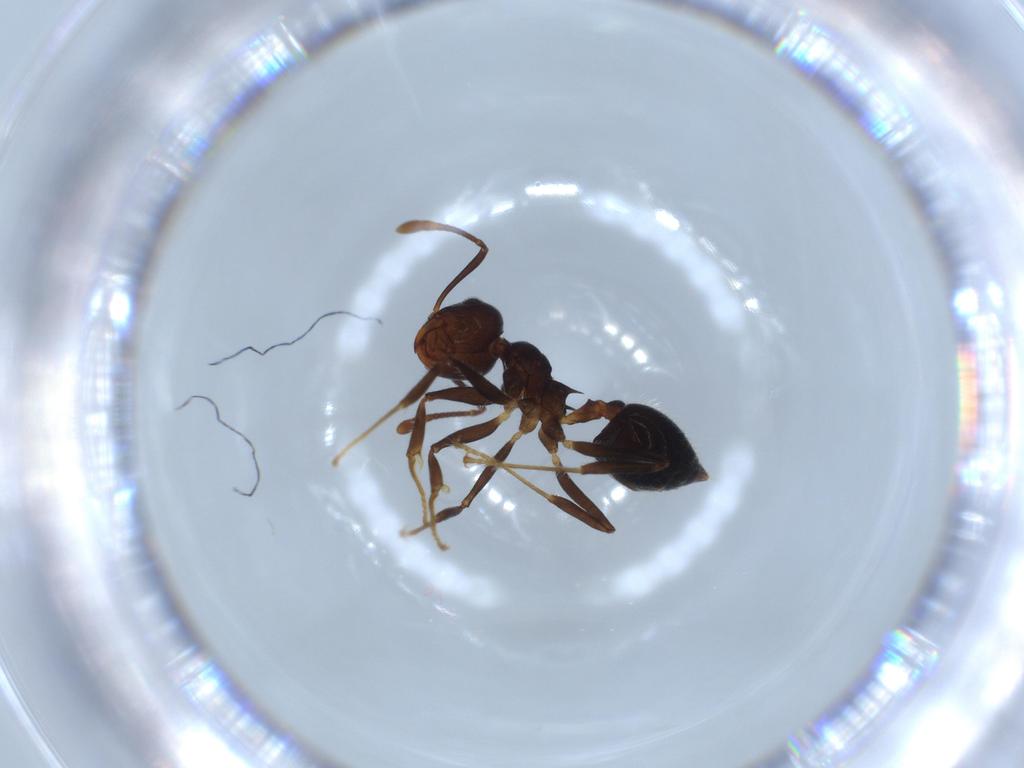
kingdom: Animalia
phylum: Arthropoda
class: Insecta
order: Hymenoptera
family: Formicidae
